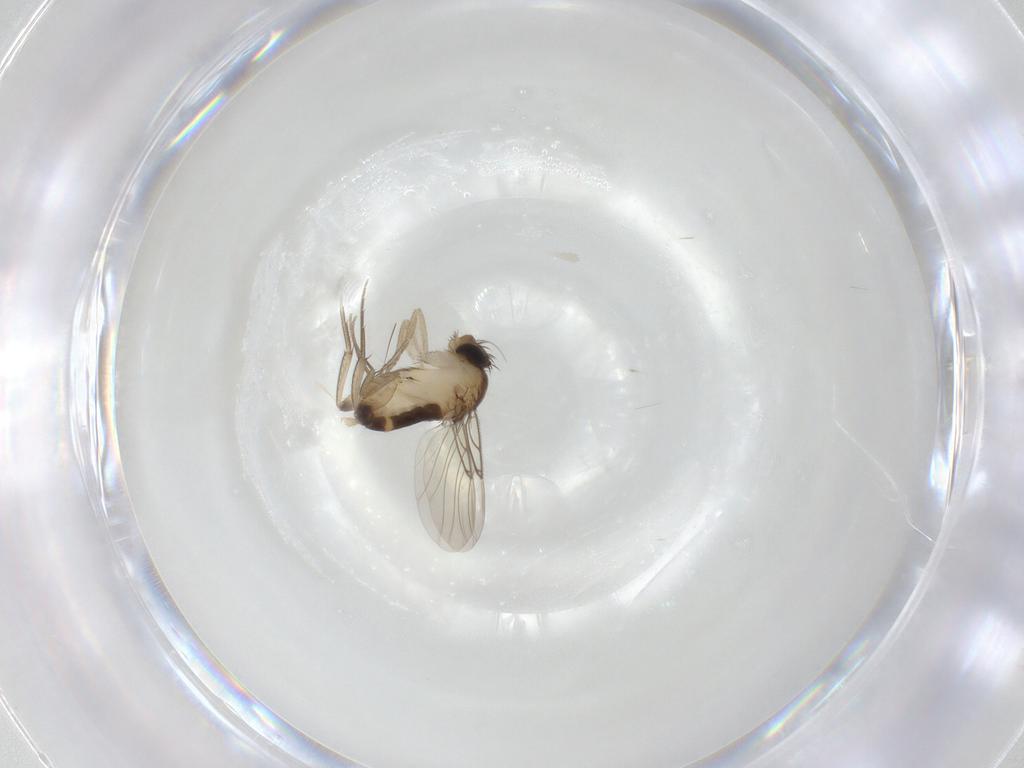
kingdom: Animalia
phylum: Arthropoda
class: Insecta
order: Diptera
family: Phoridae
